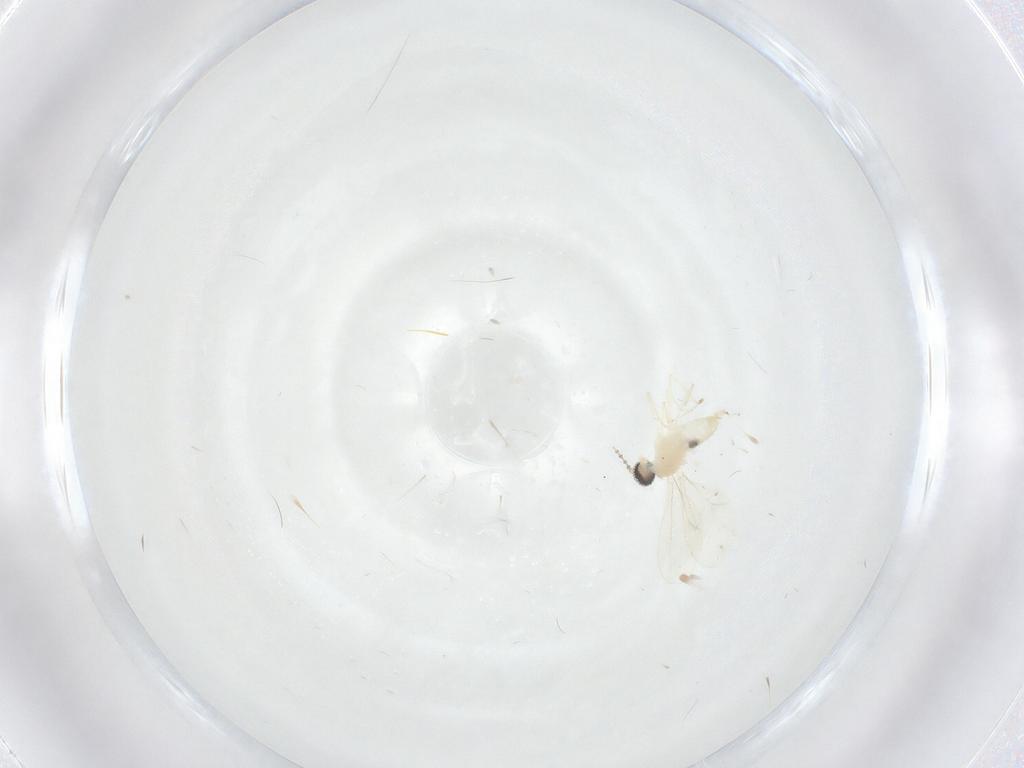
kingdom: Animalia
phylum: Arthropoda
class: Insecta
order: Diptera
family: Cecidomyiidae
